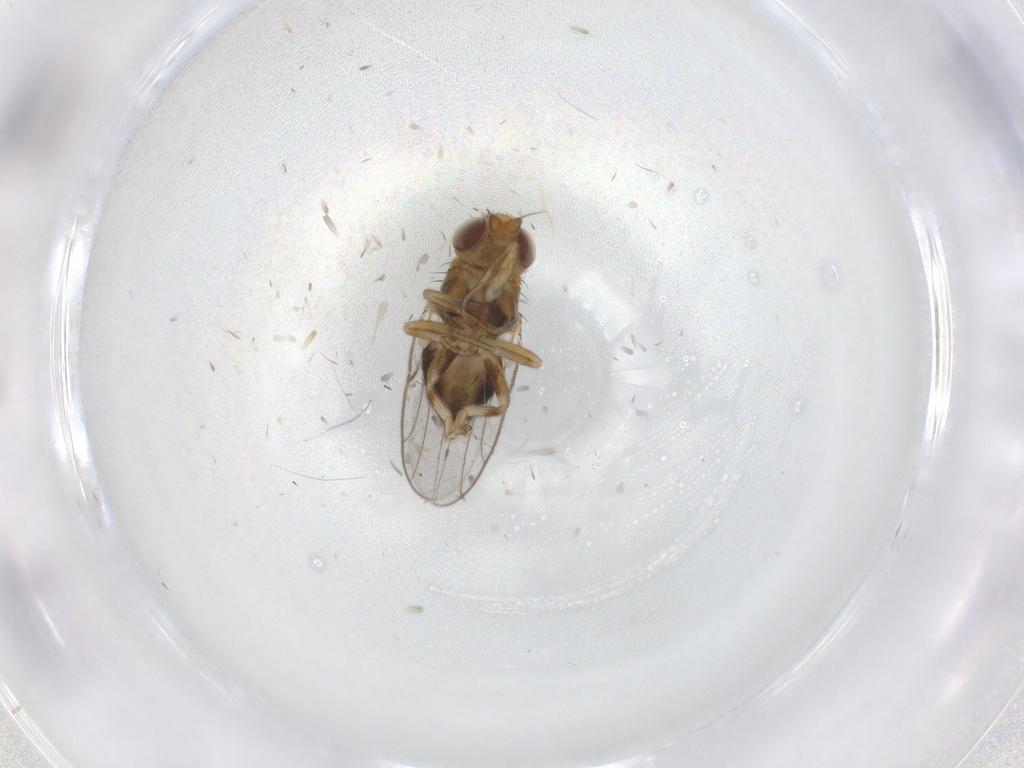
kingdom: Animalia
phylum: Arthropoda
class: Insecta
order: Diptera
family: Chloropidae
